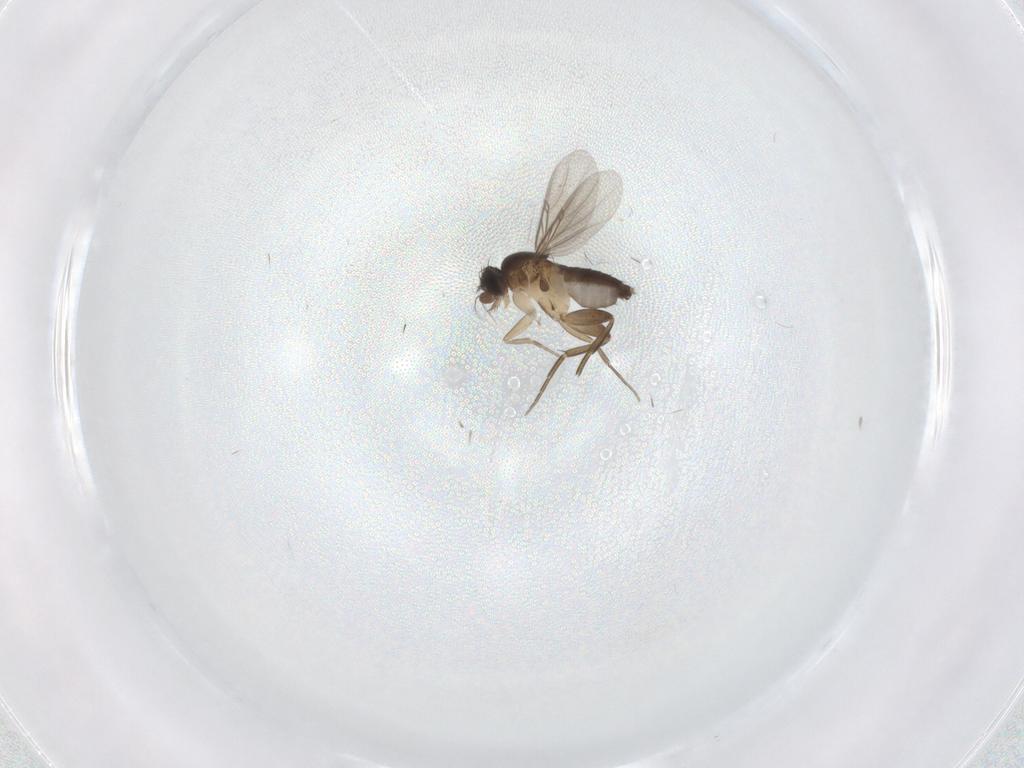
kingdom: Animalia
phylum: Arthropoda
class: Insecta
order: Diptera
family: Phoridae
